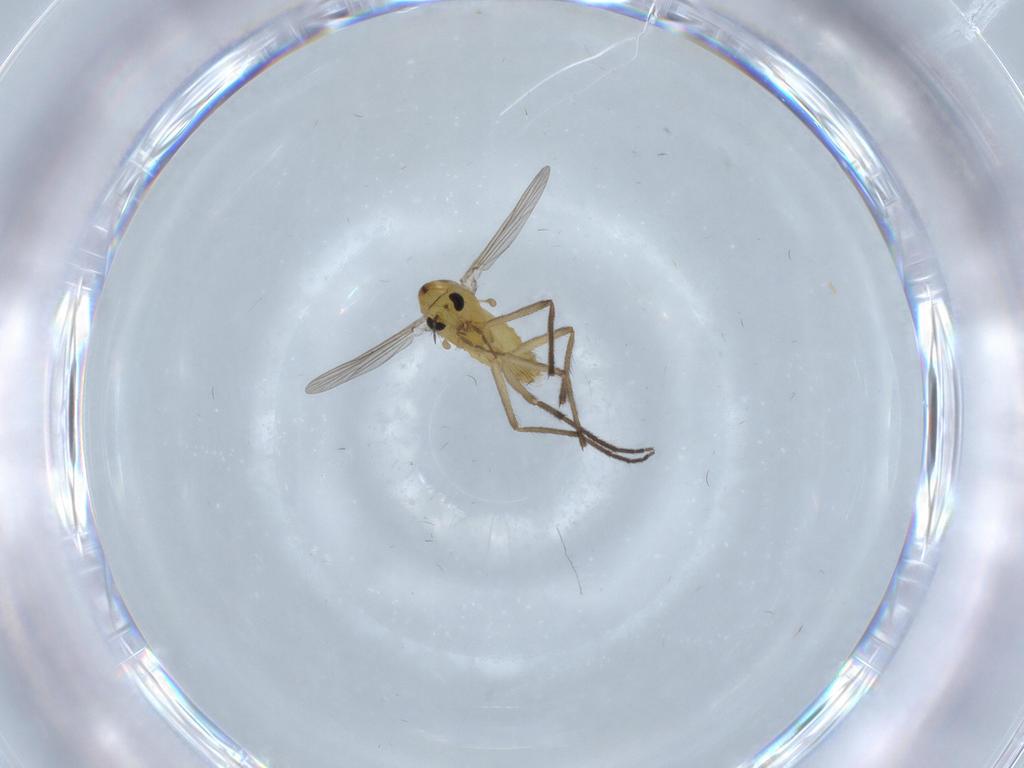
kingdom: Animalia
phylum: Arthropoda
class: Insecta
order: Diptera
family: Chironomidae
